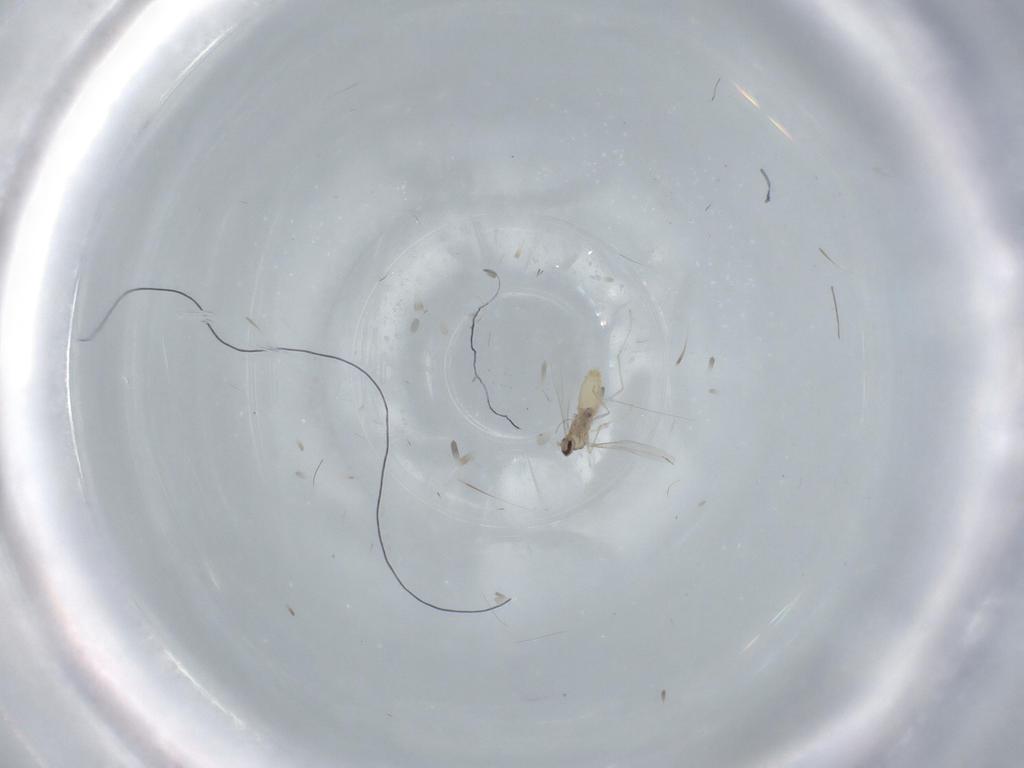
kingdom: Animalia
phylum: Arthropoda
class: Insecta
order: Diptera
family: Cecidomyiidae
